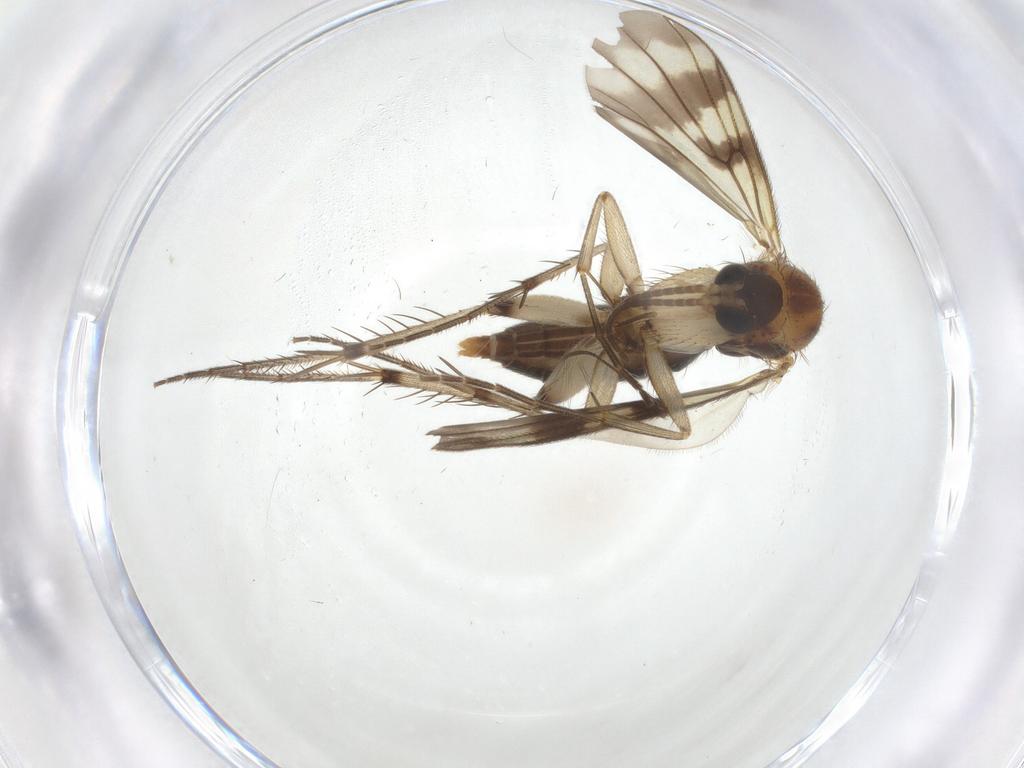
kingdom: Animalia
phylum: Arthropoda
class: Insecta
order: Diptera
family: Mycetophilidae
